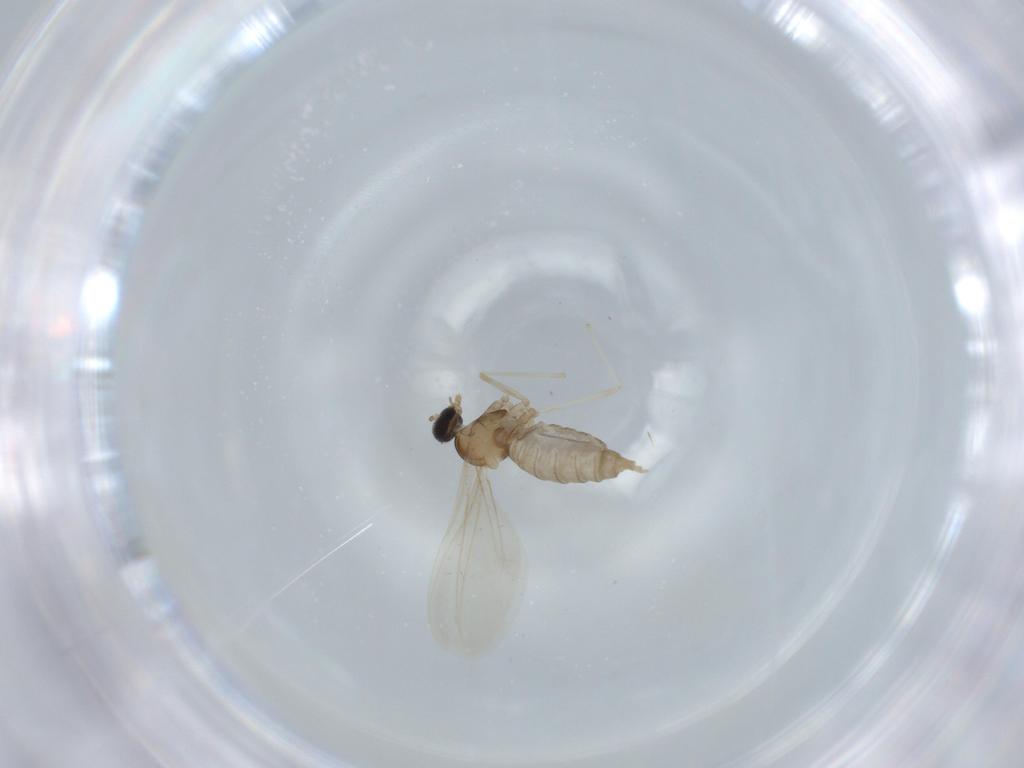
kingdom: Animalia
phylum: Arthropoda
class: Insecta
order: Diptera
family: Cecidomyiidae
